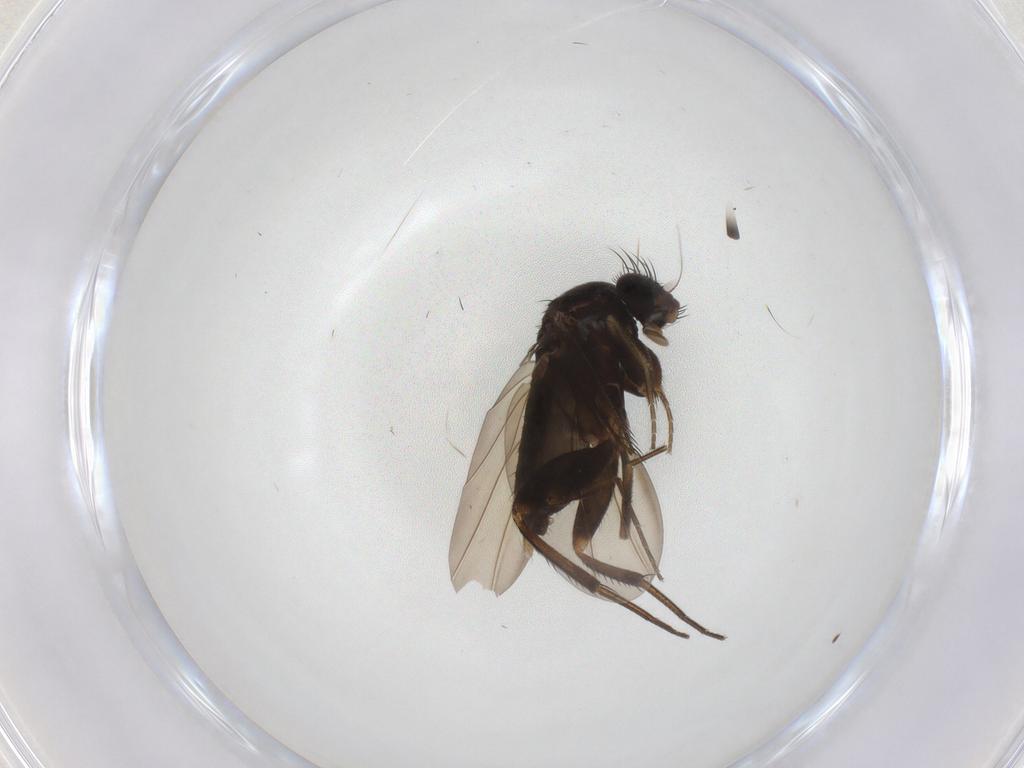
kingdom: Animalia
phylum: Arthropoda
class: Insecta
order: Diptera
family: Phoridae
